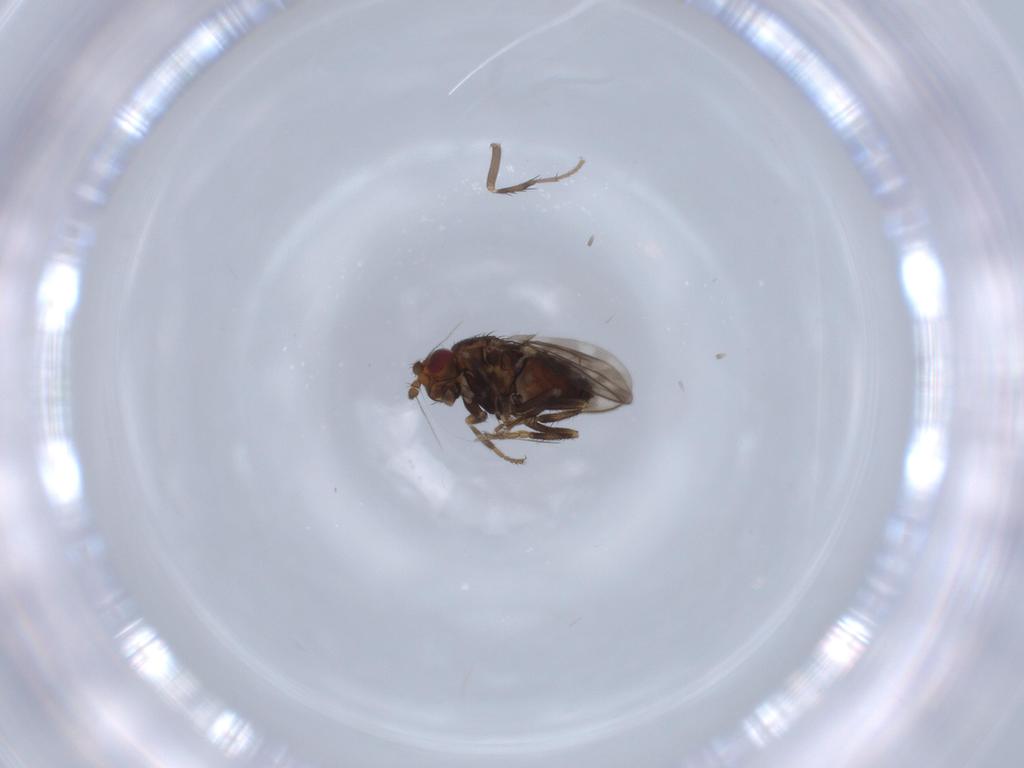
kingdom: Animalia
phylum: Arthropoda
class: Insecta
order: Diptera
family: Sphaeroceridae
